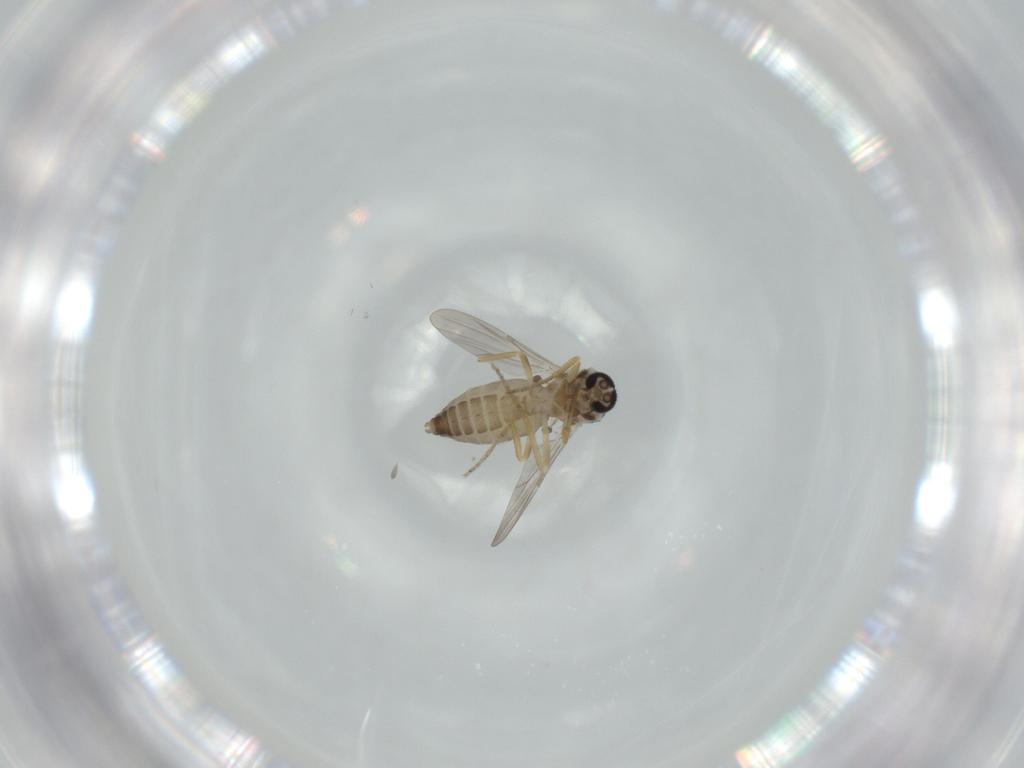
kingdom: Animalia
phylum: Arthropoda
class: Insecta
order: Diptera
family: Ceratopogonidae
